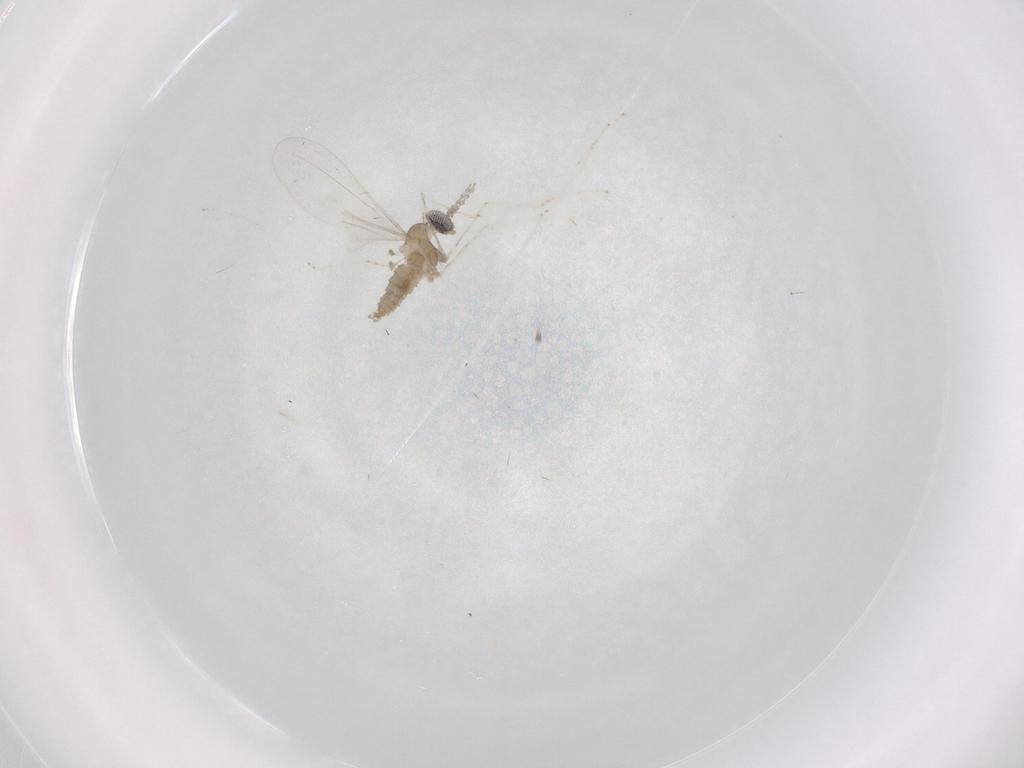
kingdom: Animalia
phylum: Arthropoda
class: Insecta
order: Diptera
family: Cecidomyiidae
